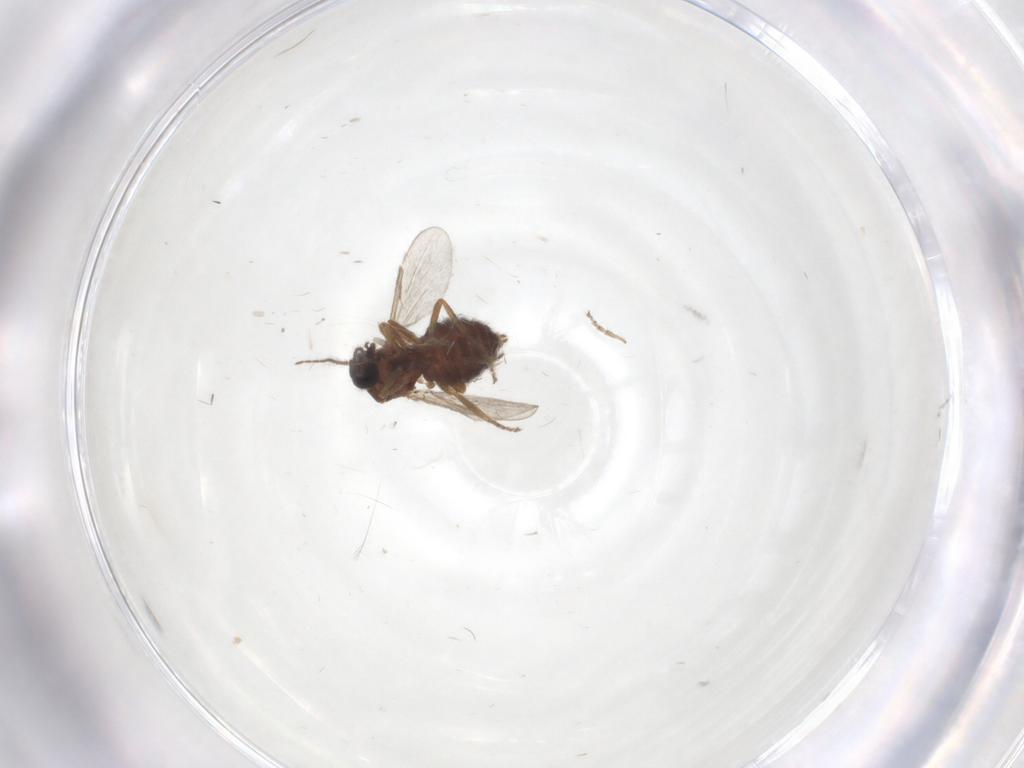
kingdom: Animalia
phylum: Arthropoda
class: Insecta
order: Diptera
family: Ceratopogonidae
